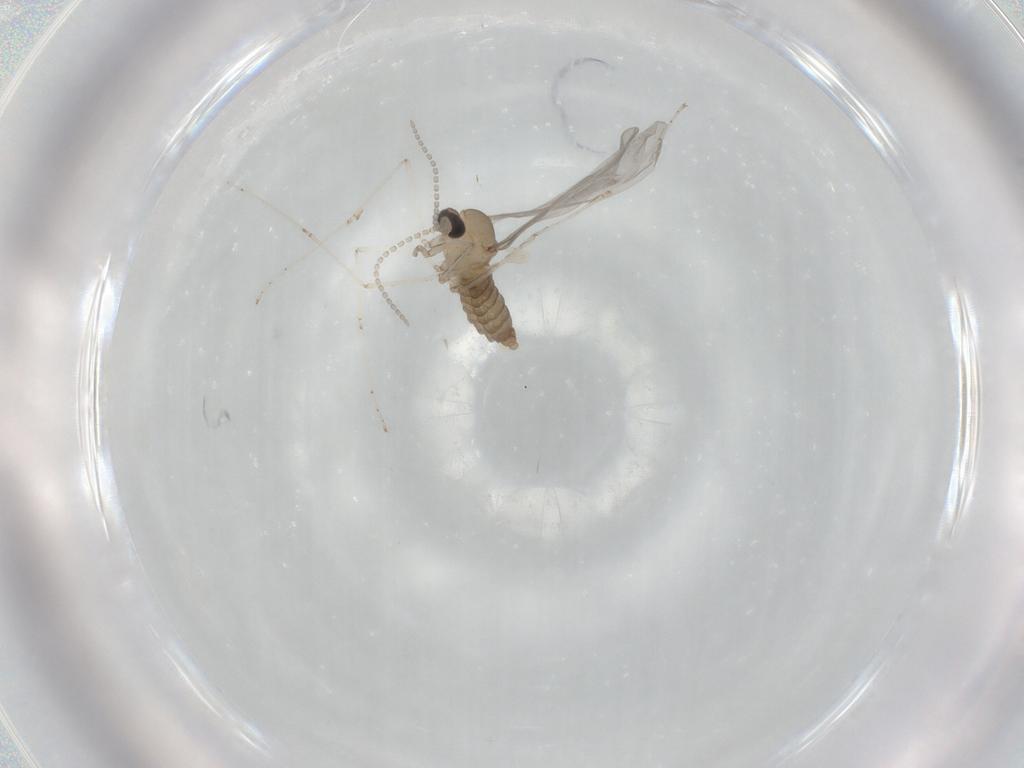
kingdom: Animalia
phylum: Arthropoda
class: Insecta
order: Diptera
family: Cecidomyiidae
